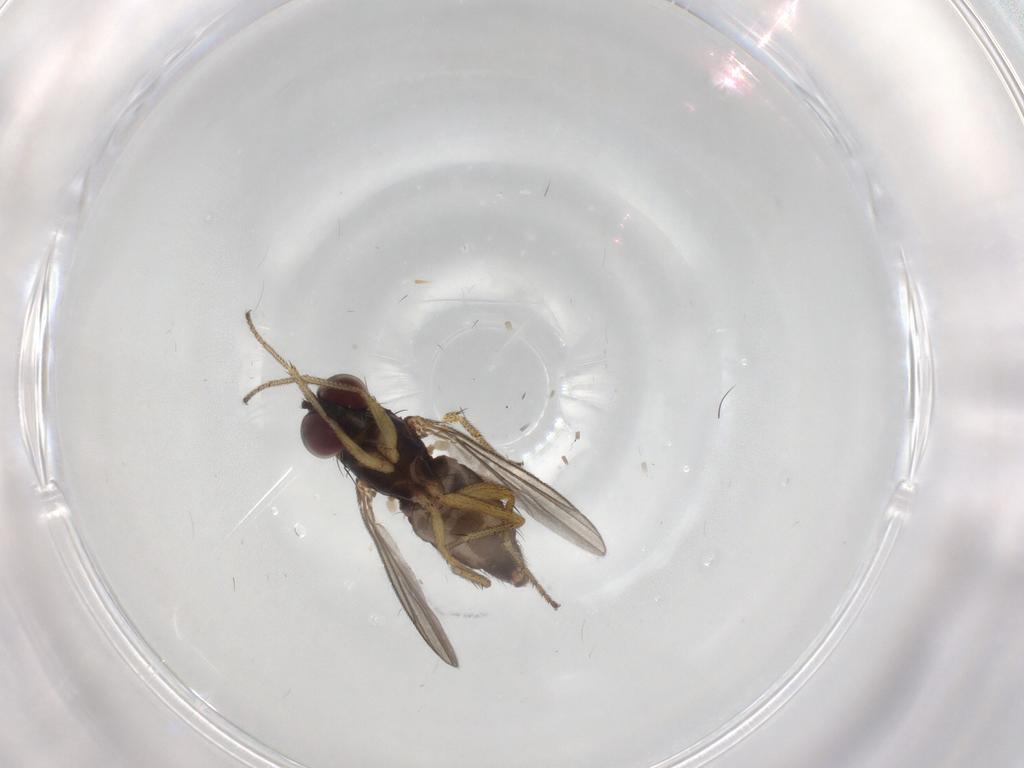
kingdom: Animalia
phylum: Arthropoda
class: Insecta
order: Diptera
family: Dolichopodidae
